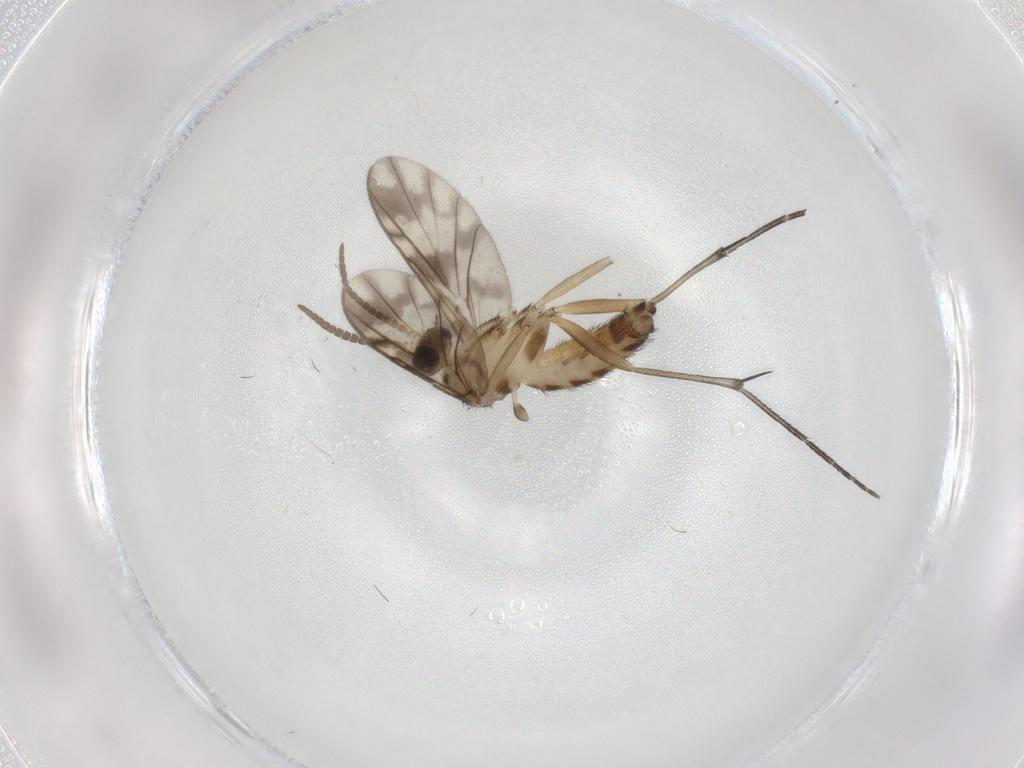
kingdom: Animalia
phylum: Arthropoda
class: Insecta
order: Diptera
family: Keroplatidae
